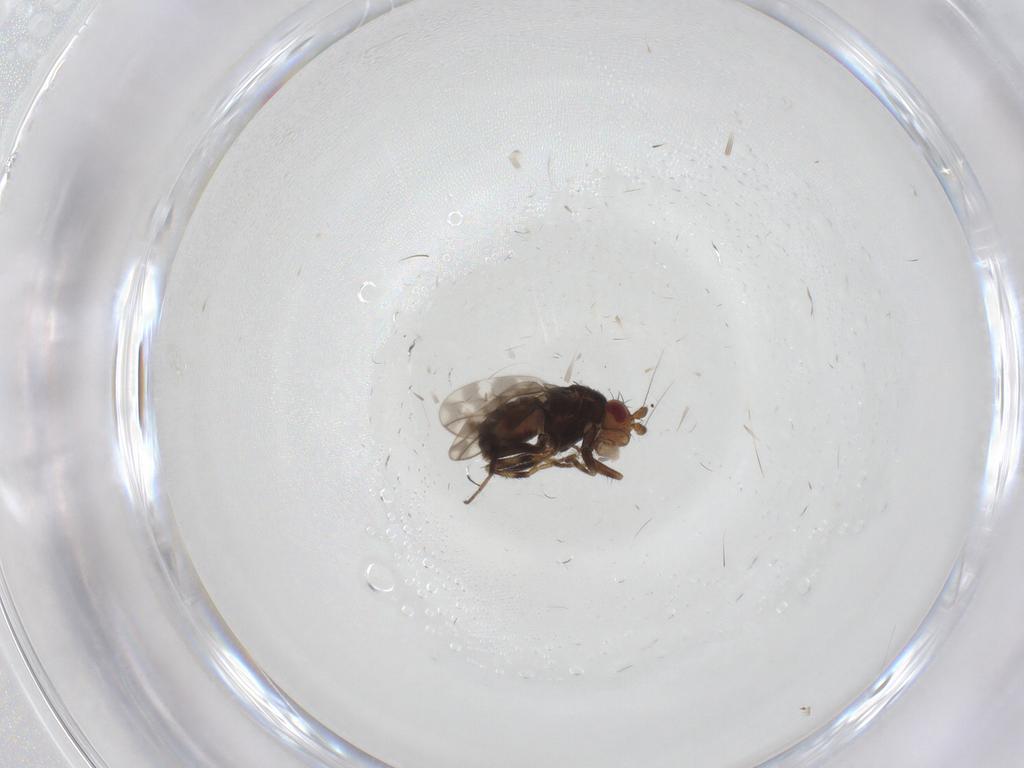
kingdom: Animalia
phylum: Arthropoda
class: Insecta
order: Diptera
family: Sphaeroceridae
